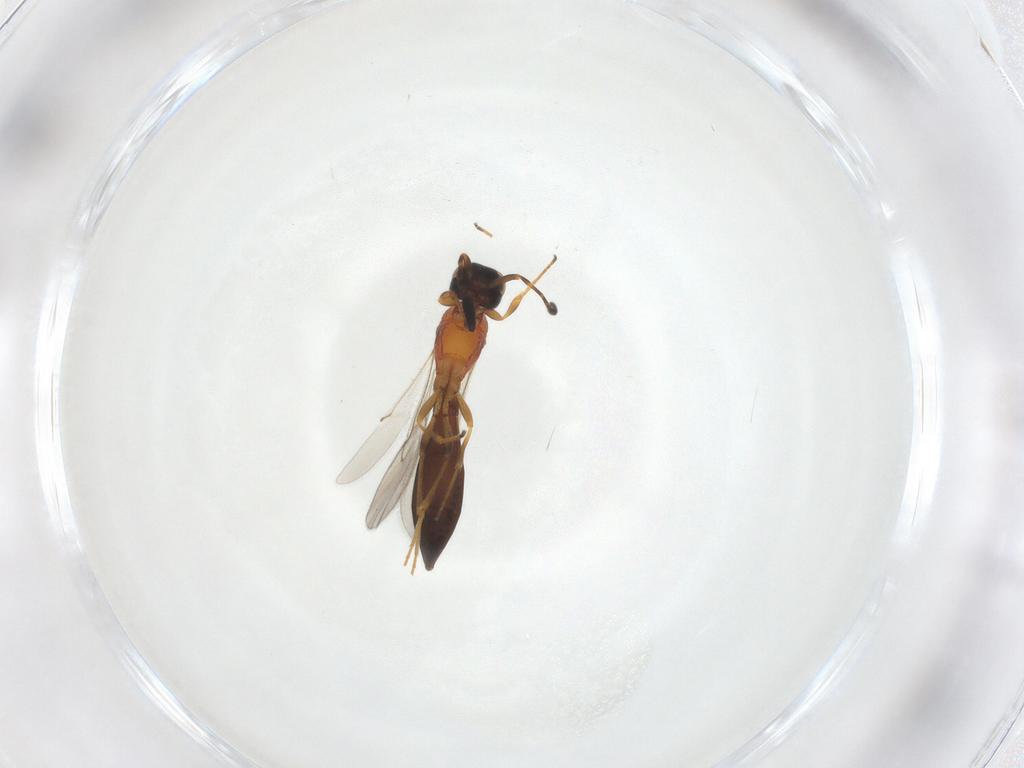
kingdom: Animalia
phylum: Arthropoda
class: Insecta
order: Hymenoptera
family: Scelionidae
